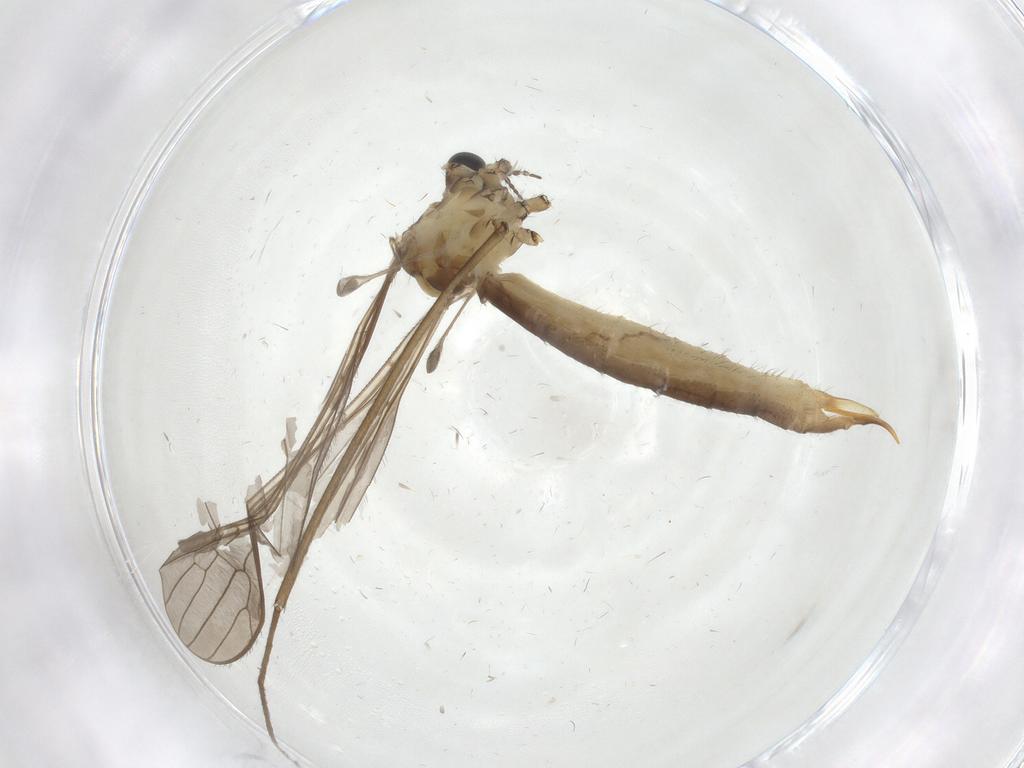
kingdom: Animalia
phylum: Arthropoda
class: Insecta
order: Diptera
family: Limoniidae
